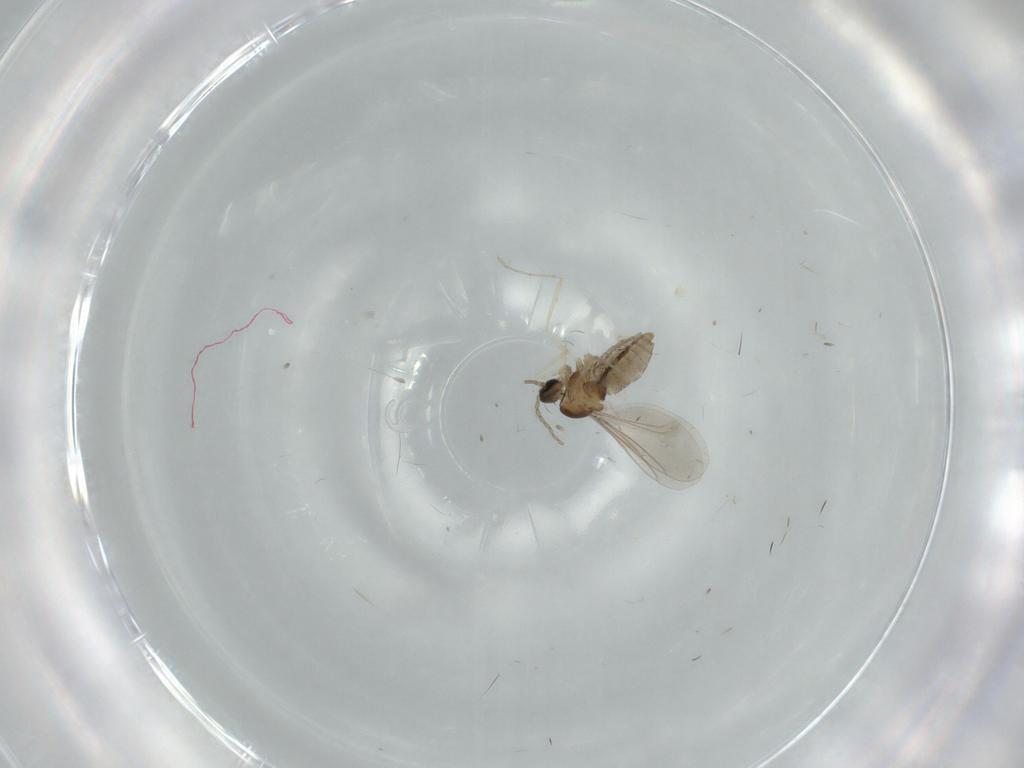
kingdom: Animalia
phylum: Arthropoda
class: Insecta
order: Diptera
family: Cecidomyiidae
